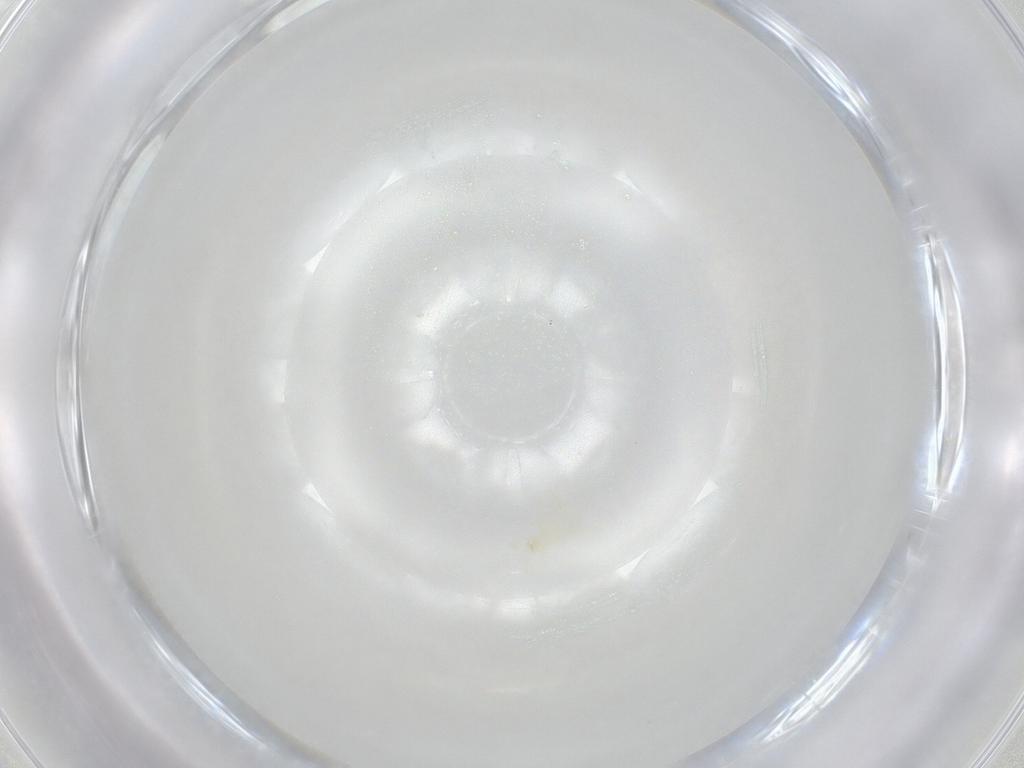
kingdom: Animalia
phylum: Arthropoda
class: Arachnida
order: Trombidiformes
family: Erythraeidae
